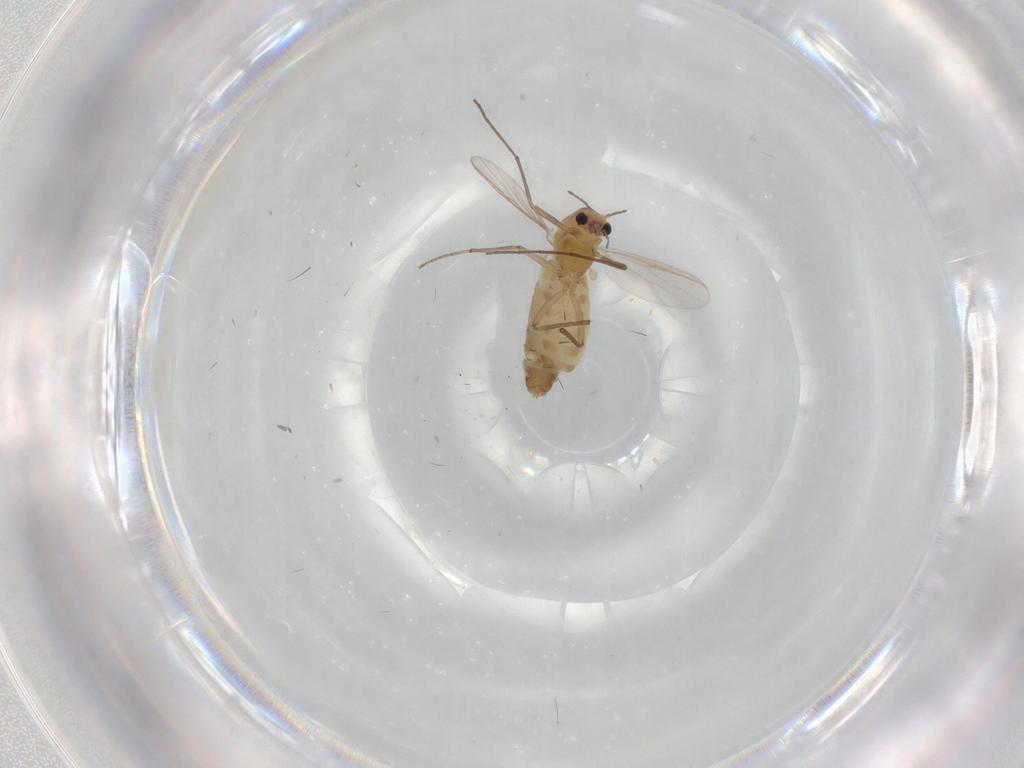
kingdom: Animalia
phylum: Arthropoda
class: Insecta
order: Diptera
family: Chironomidae
